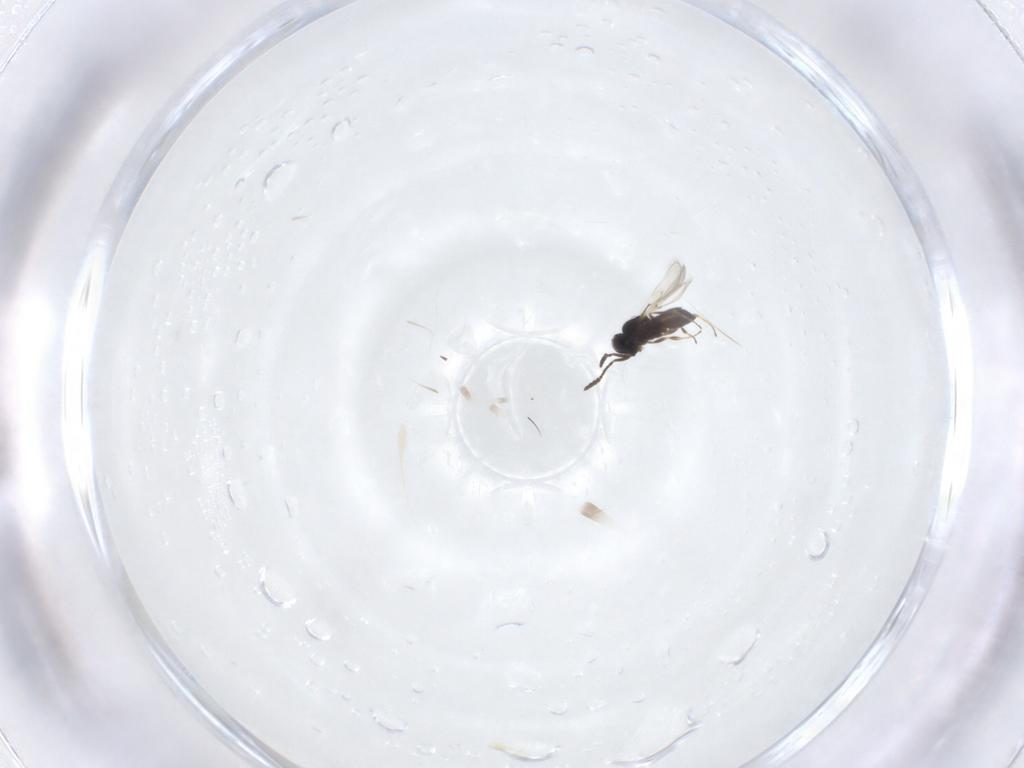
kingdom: Animalia
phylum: Arthropoda
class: Insecta
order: Hymenoptera
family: Scelionidae
